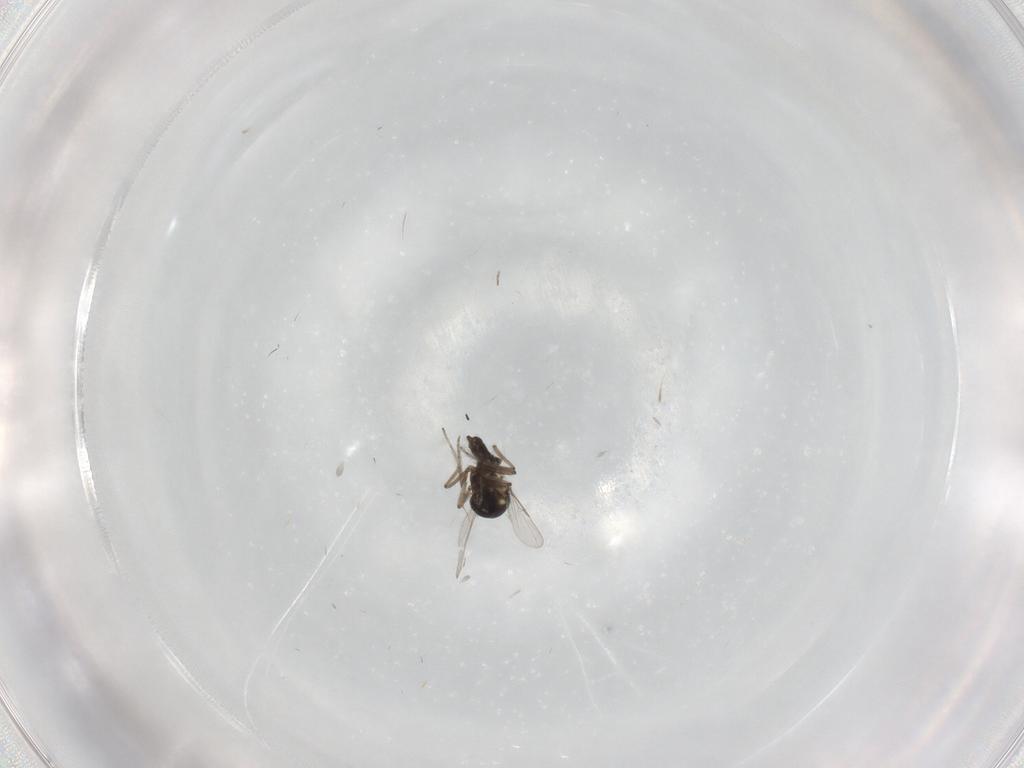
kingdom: Animalia
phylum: Arthropoda
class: Insecta
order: Diptera
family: Ceratopogonidae
